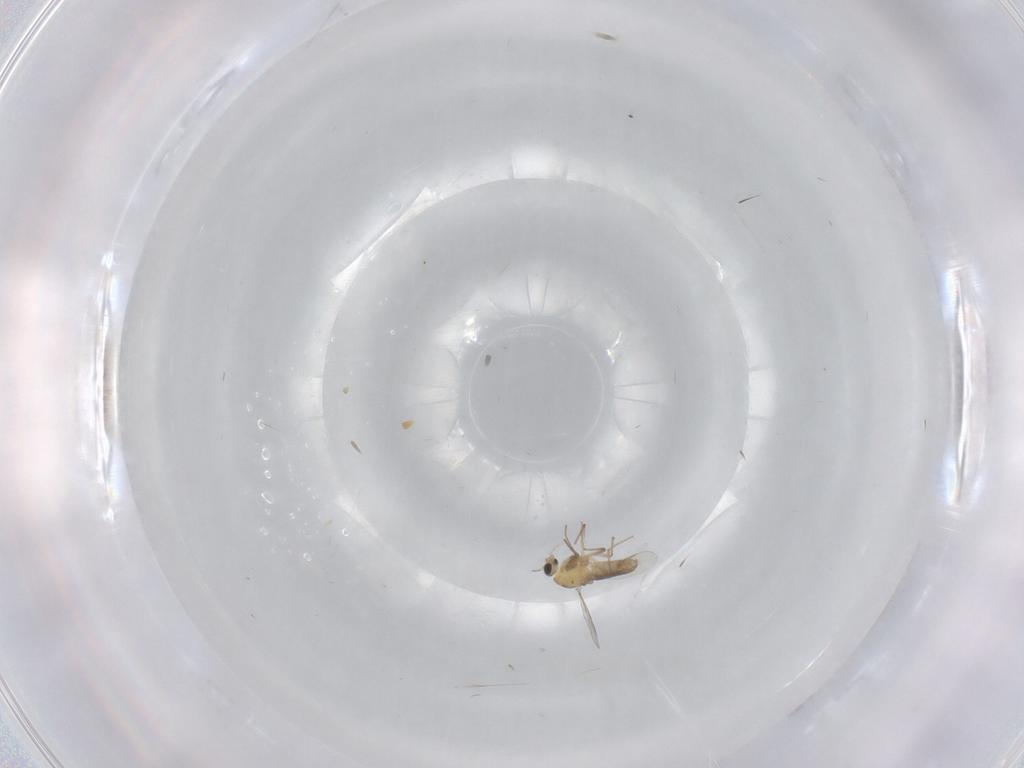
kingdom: Animalia
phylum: Arthropoda
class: Insecta
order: Diptera
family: Chironomidae
